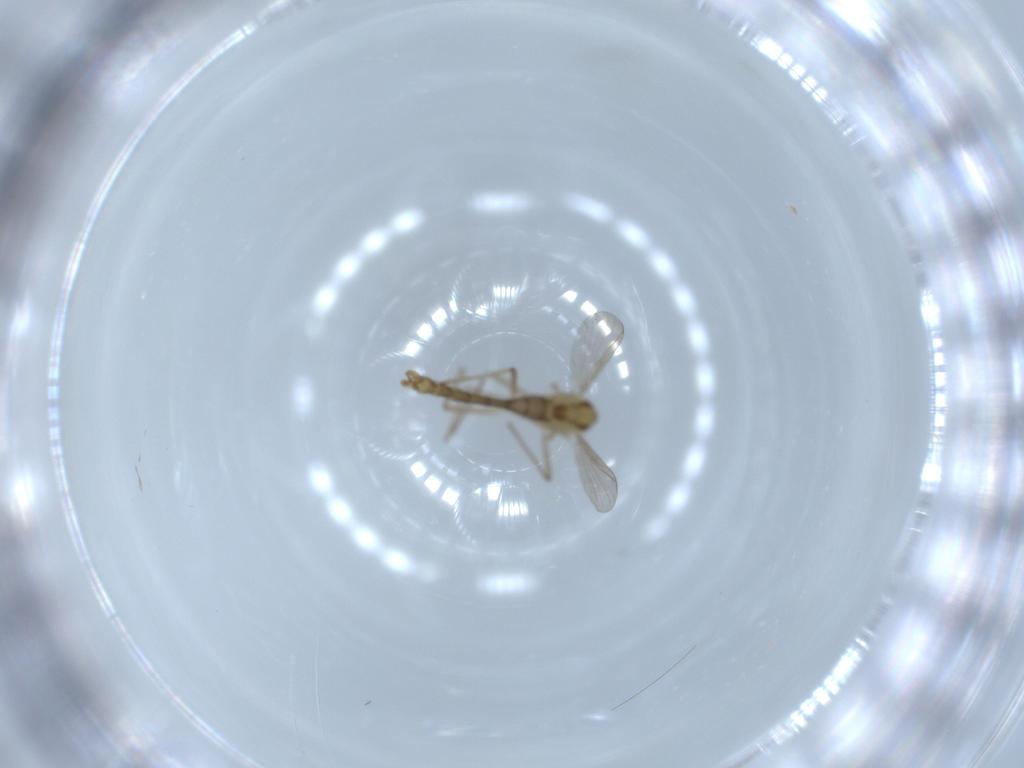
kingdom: Animalia
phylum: Arthropoda
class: Insecta
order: Diptera
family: Chironomidae
